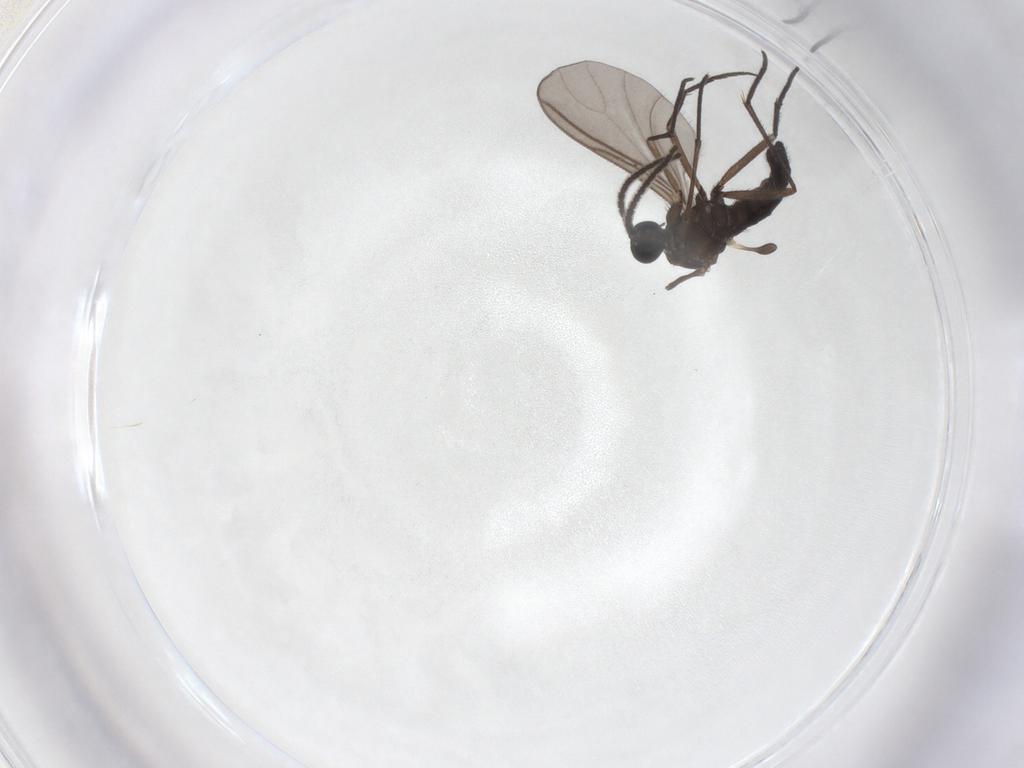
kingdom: Animalia
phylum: Arthropoda
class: Insecta
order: Diptera
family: Sciaridae
